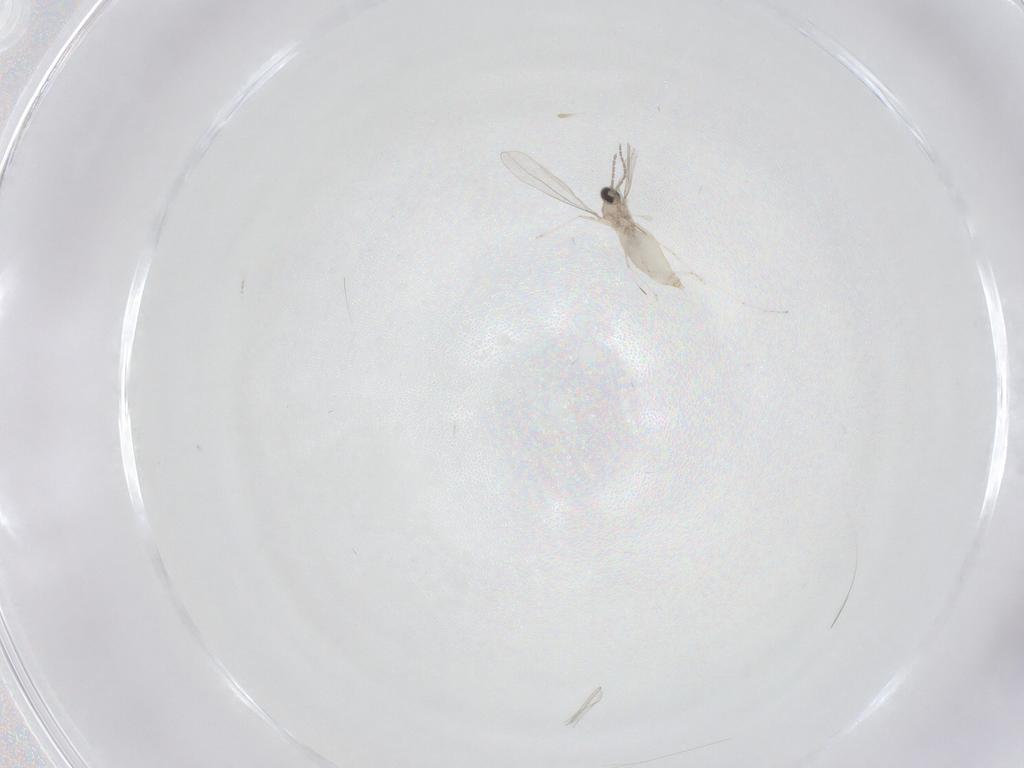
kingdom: Animalia
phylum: Arthropoda
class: Insecta
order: Diptera
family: Cecidomyiidae
